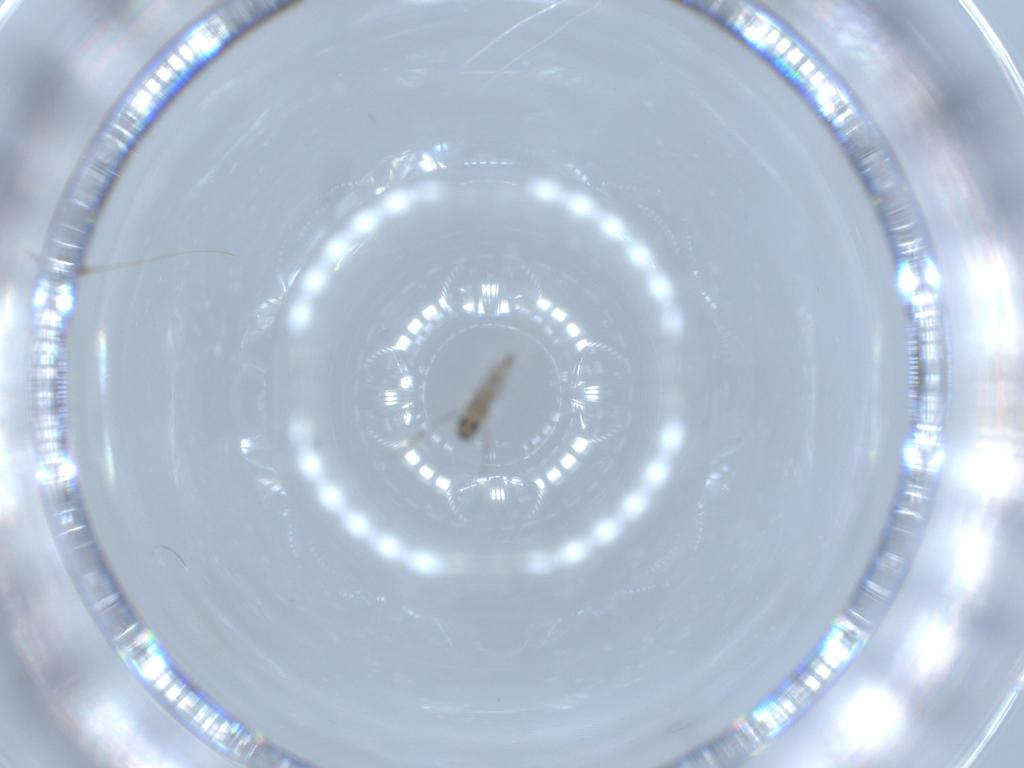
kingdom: Animalia
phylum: Arthropoda
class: Insecta
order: Diptera
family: Cecidomyiidae
